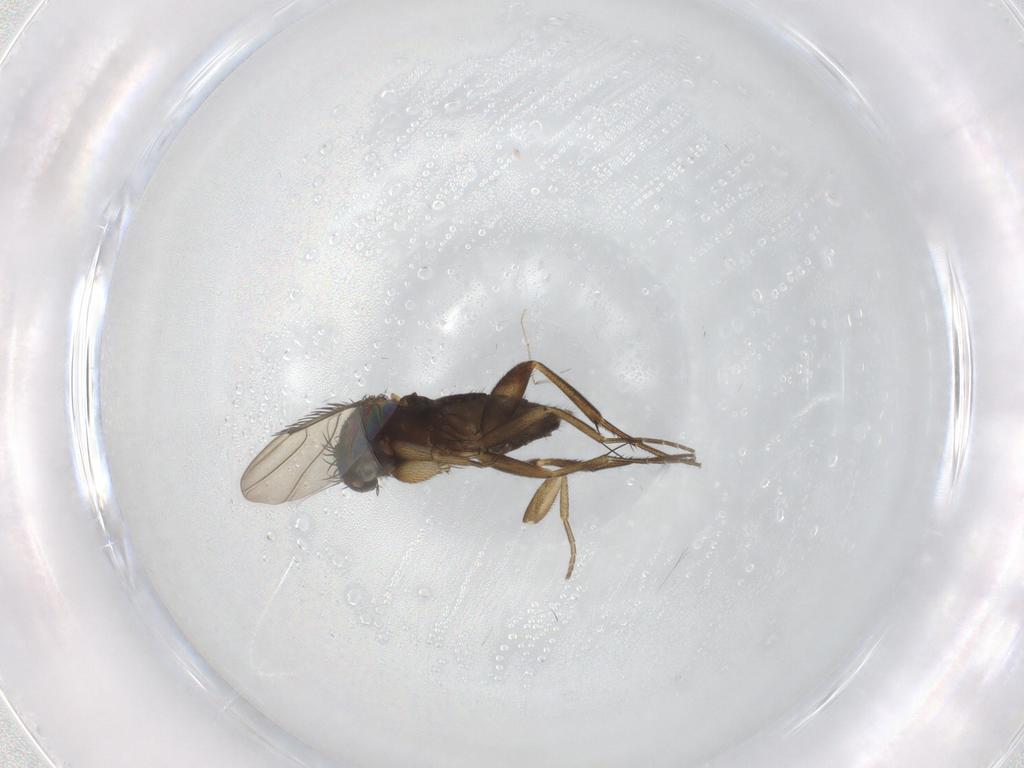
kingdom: Animalia
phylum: Arthropoda
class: Insecta
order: Diptera
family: Phoridae
